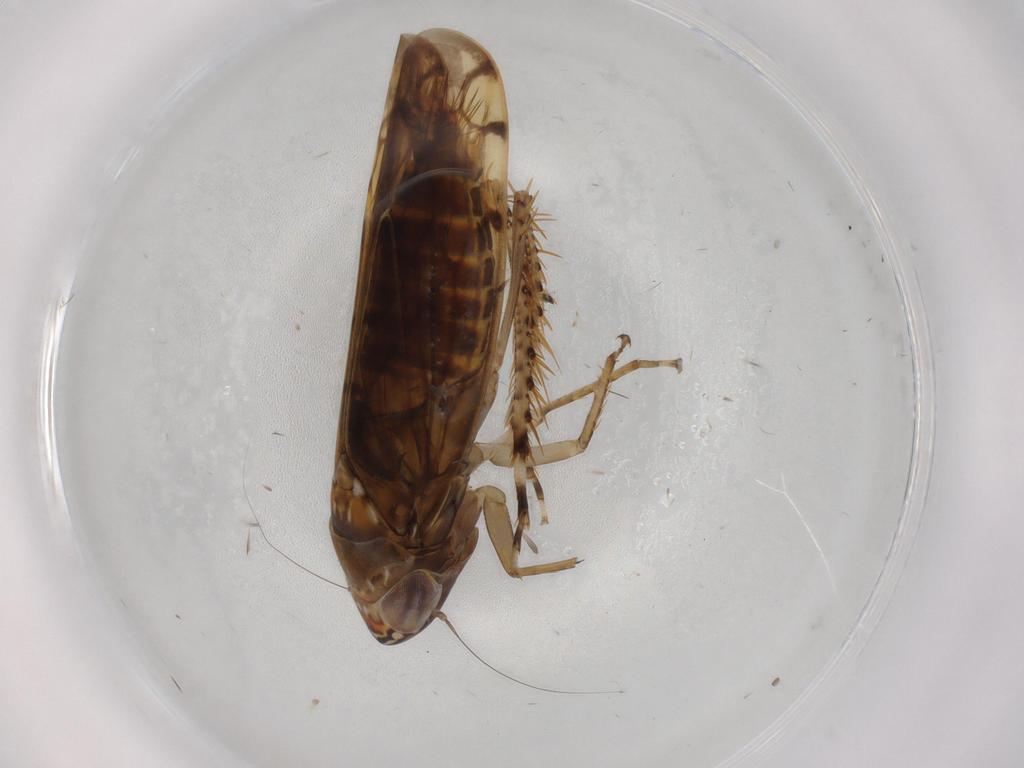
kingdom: Animalia
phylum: Arthropoda
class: Insecta
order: Hemiptera
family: Cicadellidae
